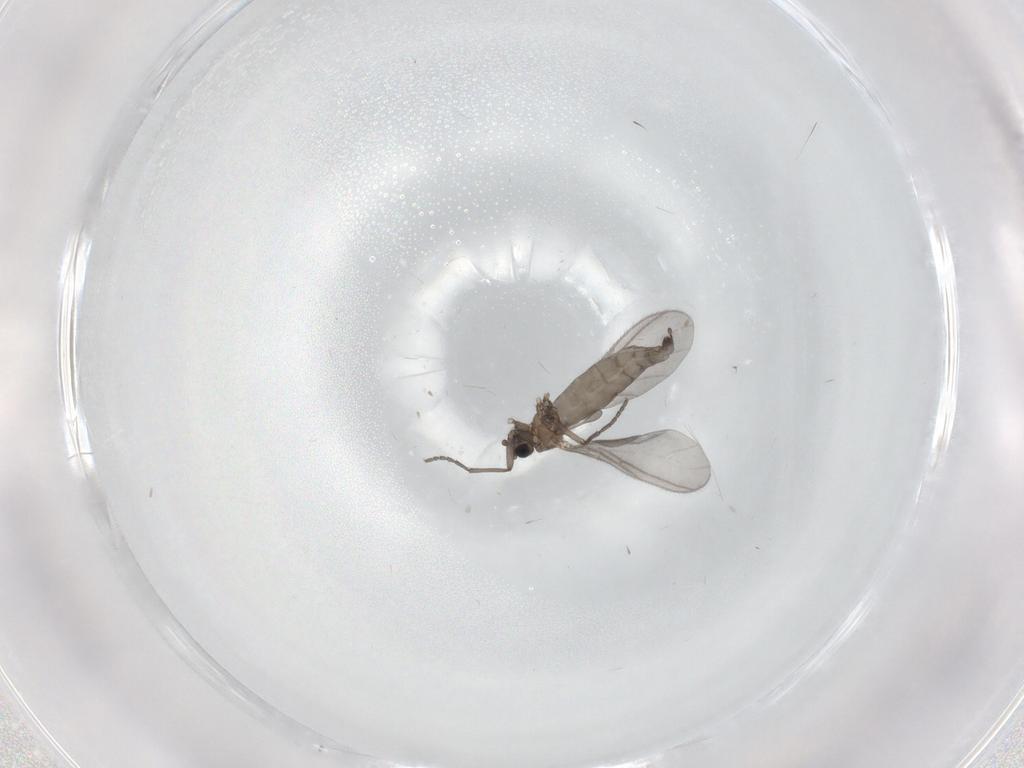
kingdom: Animalia
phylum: Arthropoda
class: Insecta
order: Diptera
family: Sciaridae
